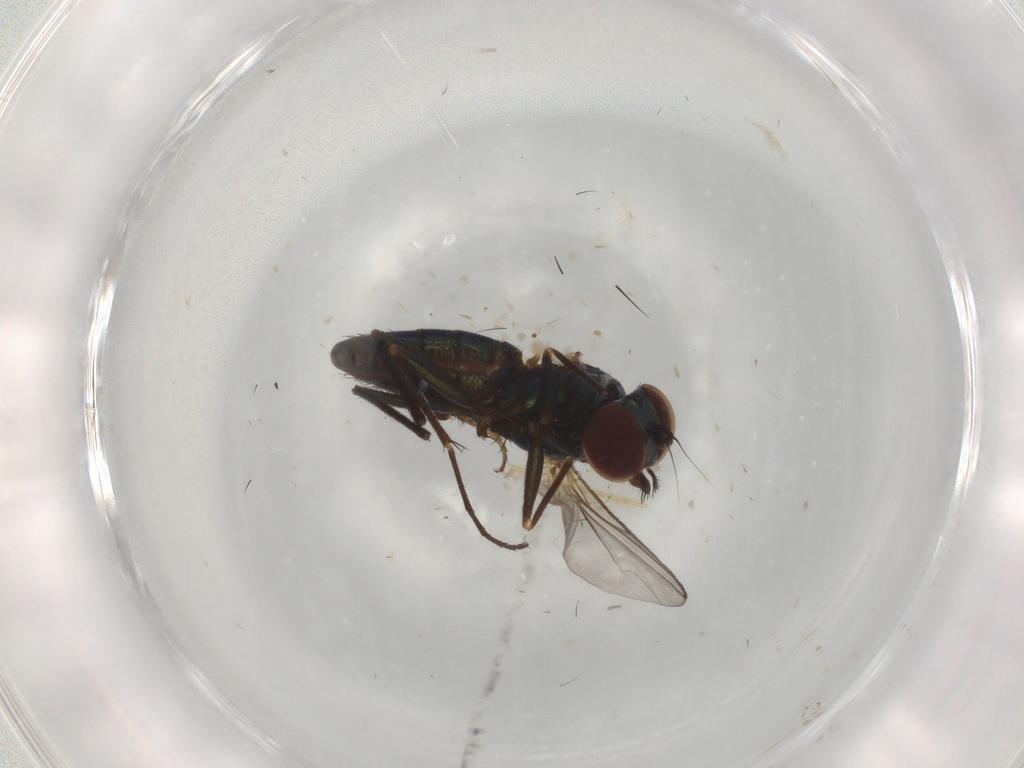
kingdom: Animalia
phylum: Arthropoda
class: Insecta
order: Diptera
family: Dolichopodidae
